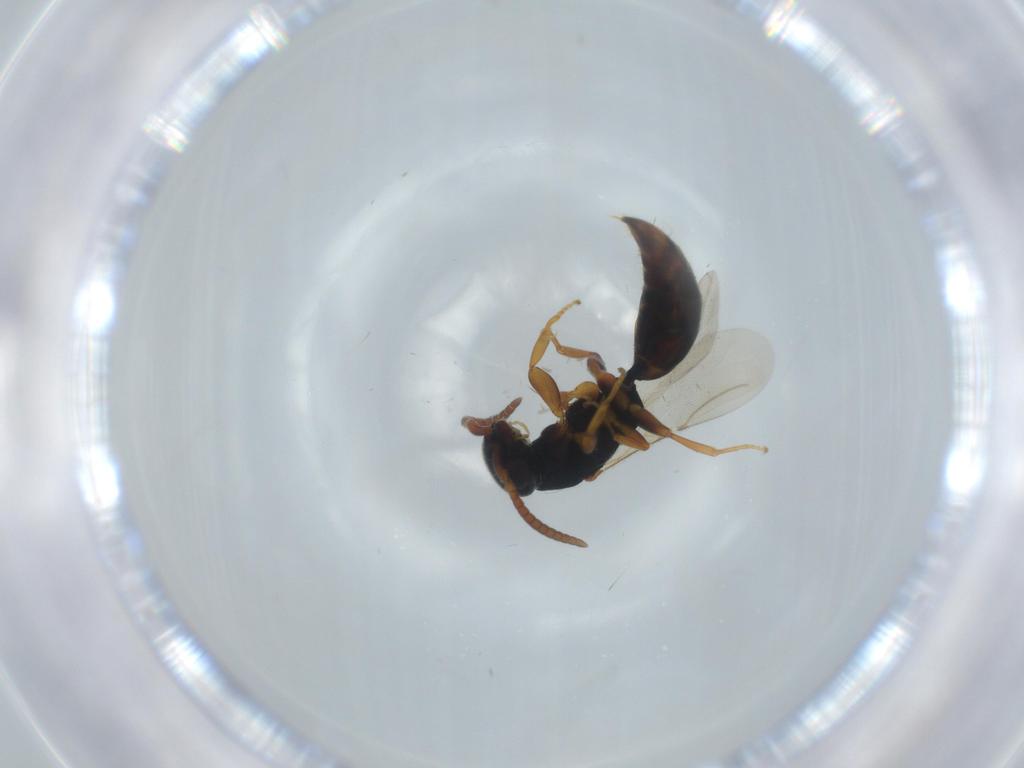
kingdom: Animalia
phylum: Arthropoda
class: Insecta
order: Hymenoptera
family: Bethylidae
